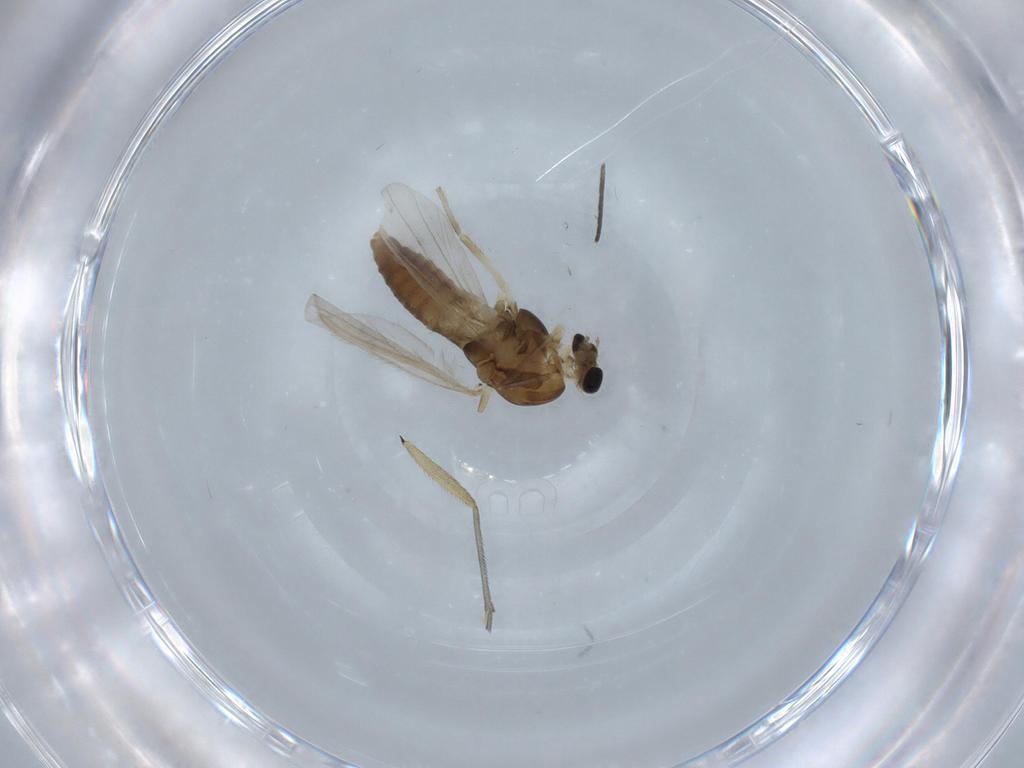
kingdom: Animalia
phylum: Arthropoda
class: Insecta
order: Diptera
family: Chironomidae
